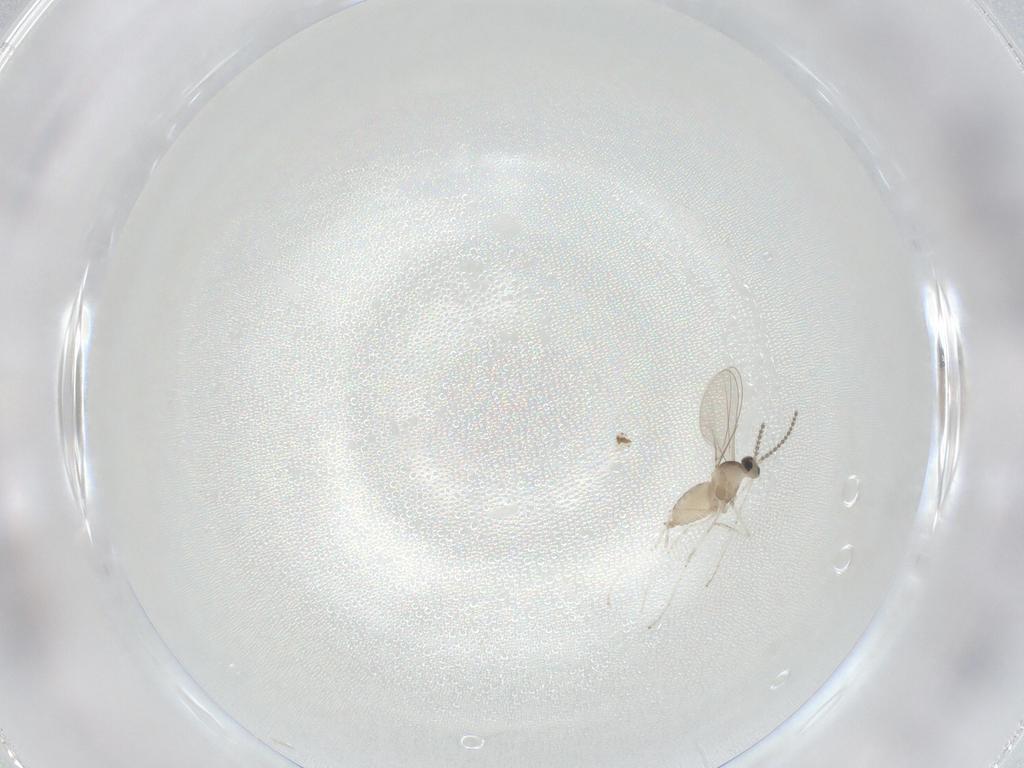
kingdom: Animalia
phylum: Arthropoda
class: Insecta
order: Diptera
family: Cecidomyiidae
